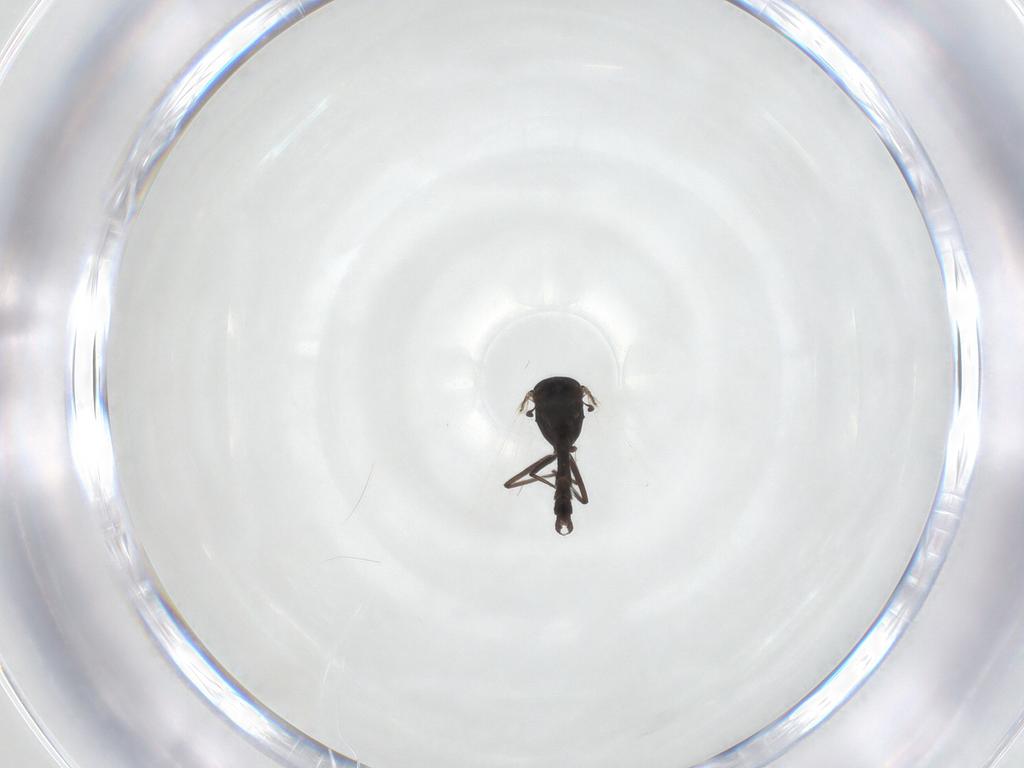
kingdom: Animalia
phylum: Arthropoda
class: Insecta
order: Diptera
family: Chironomidae
